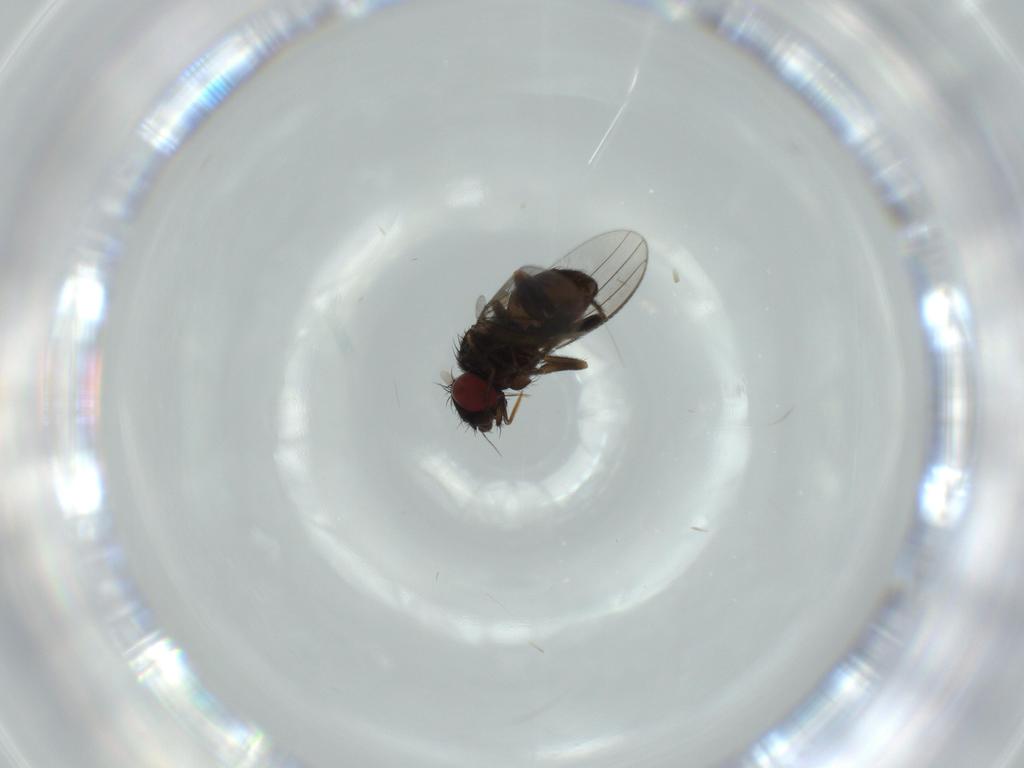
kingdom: Animalia
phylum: Arthropoda
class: Insecta
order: Diptera
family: Milichiidae
